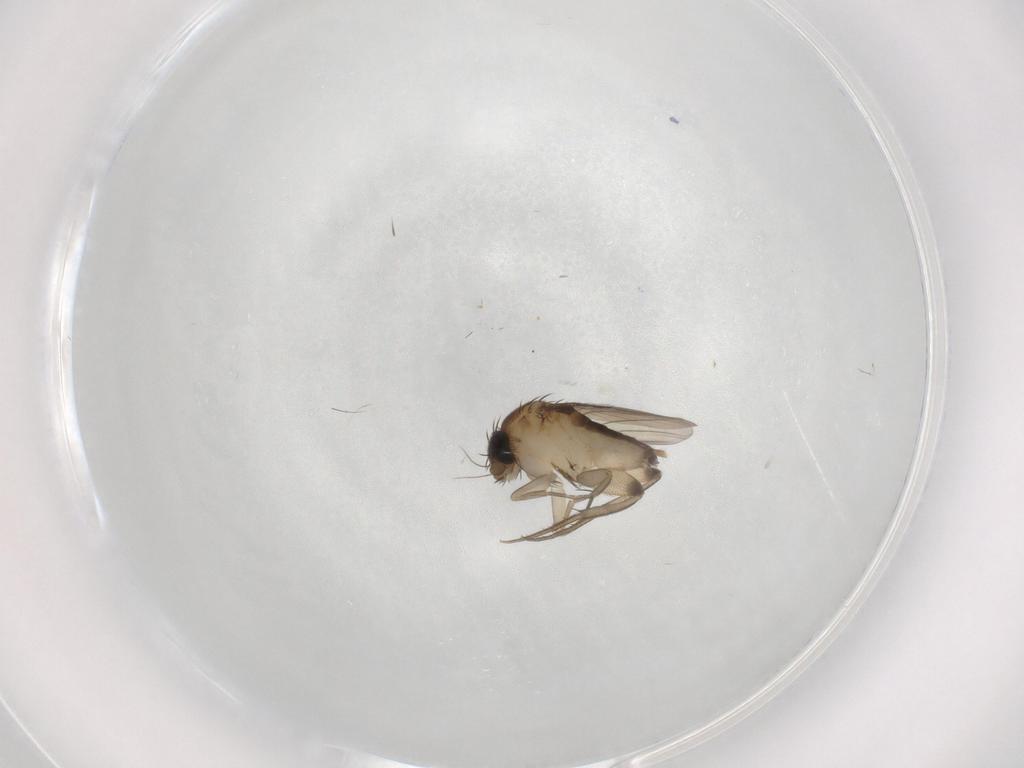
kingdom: Animalia
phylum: Arthropoda
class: Insecta
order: Diptera
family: Phoridae
